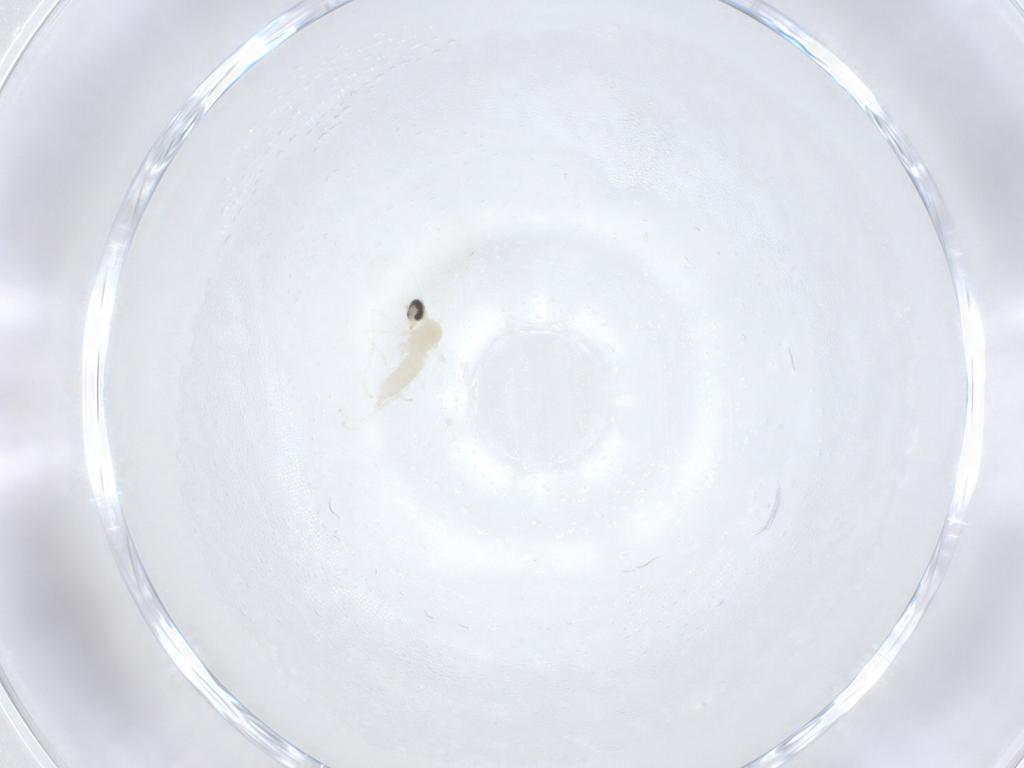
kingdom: Animalia
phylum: Arthropoda
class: Insecta
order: Diptera
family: Cecidomyiidae
